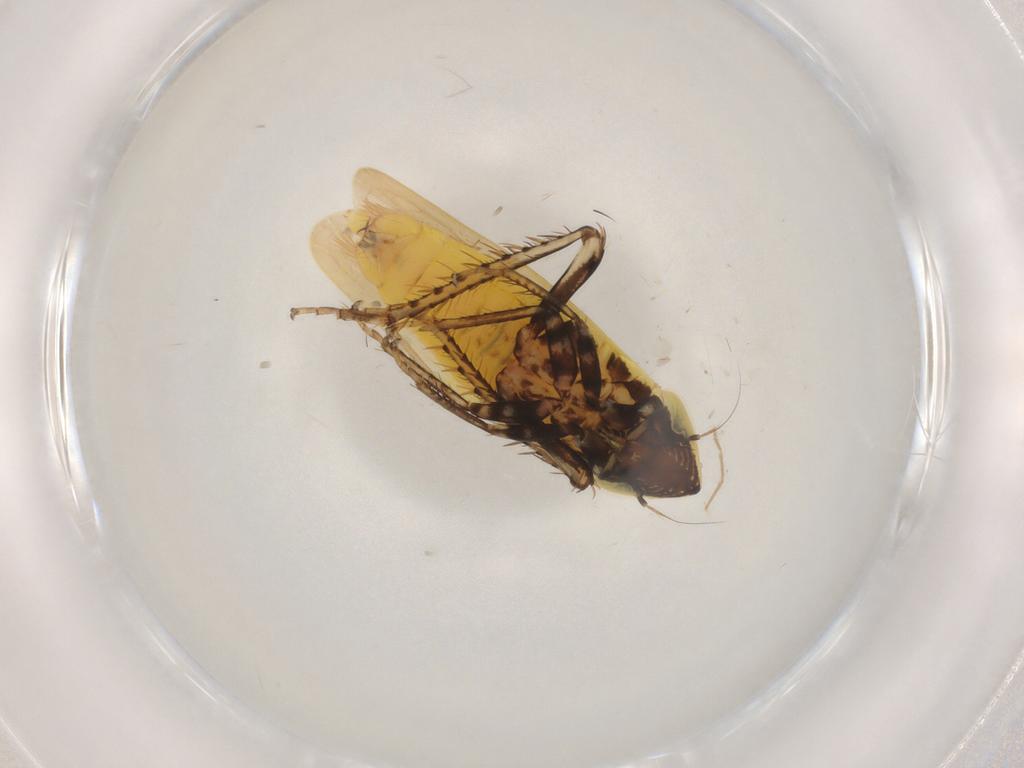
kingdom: Animalia
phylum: Arthropoda
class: Insecta
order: Hemiptera
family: Cicadellidae
